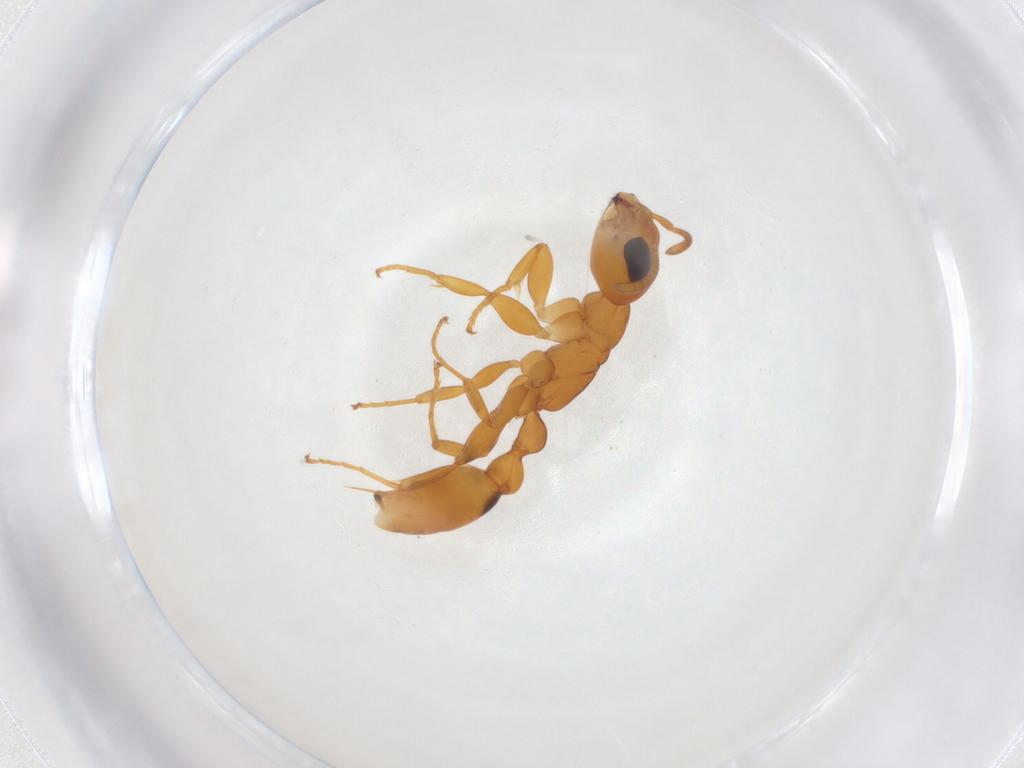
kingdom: Animalia
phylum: Arthropoda
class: Insecta
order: Hymenoptera
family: Formicidae
